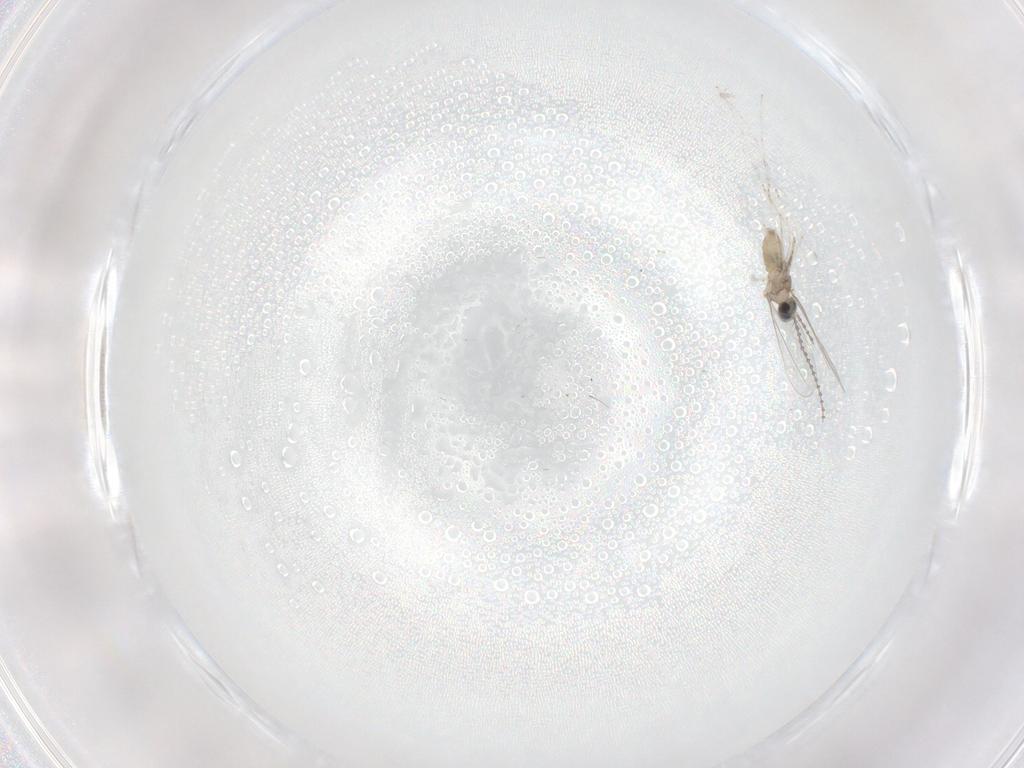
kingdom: Animalia
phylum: Arthropoda
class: Insecta
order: Diptera
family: Cecidomyiidae
